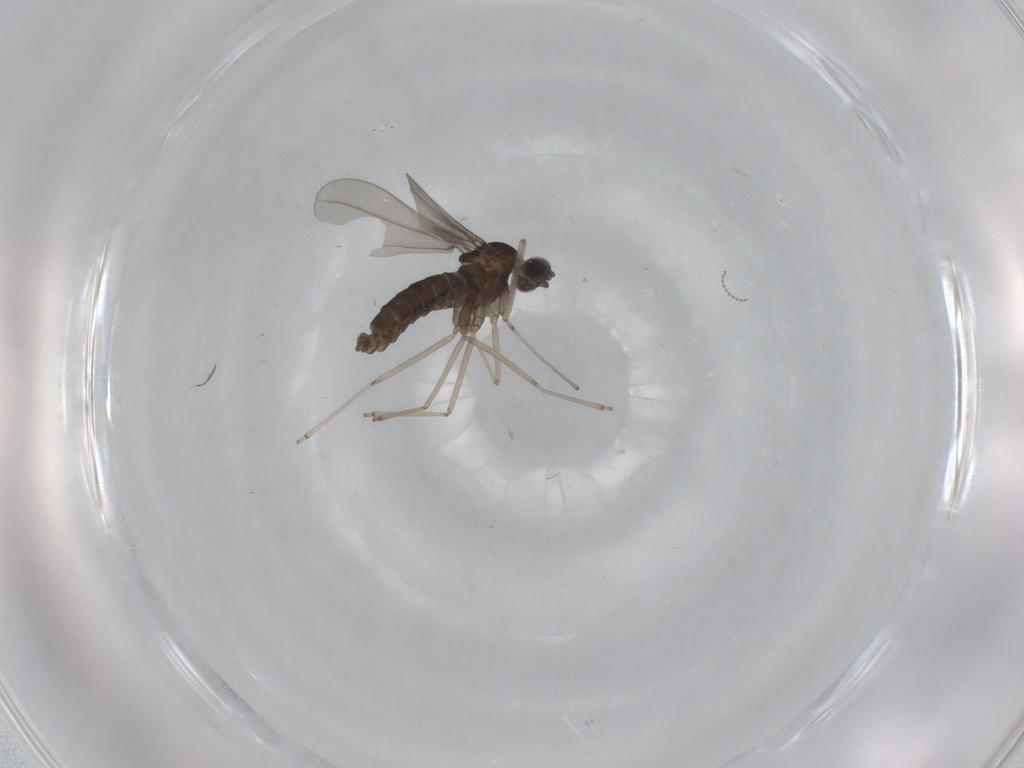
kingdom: Animalia
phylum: Arthropoda
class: Insecta
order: Diptera
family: Cecidomyiidae
